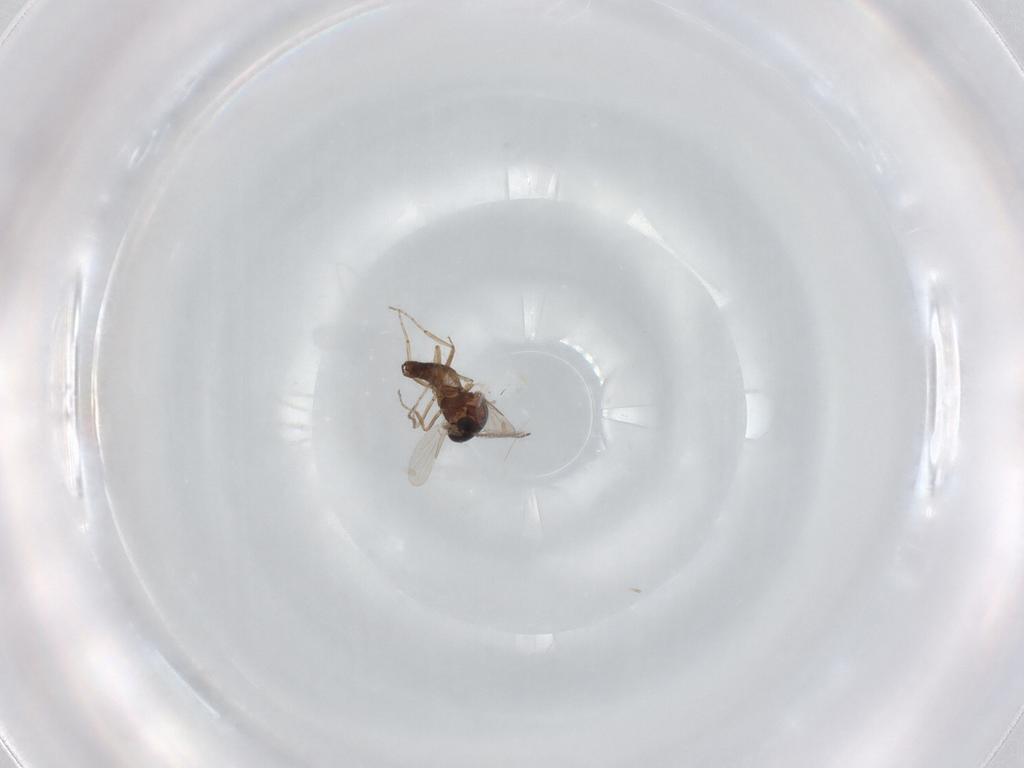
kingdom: Animalia
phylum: Arthropoda
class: Insecta
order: Diptera
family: Ceratopogonidae
